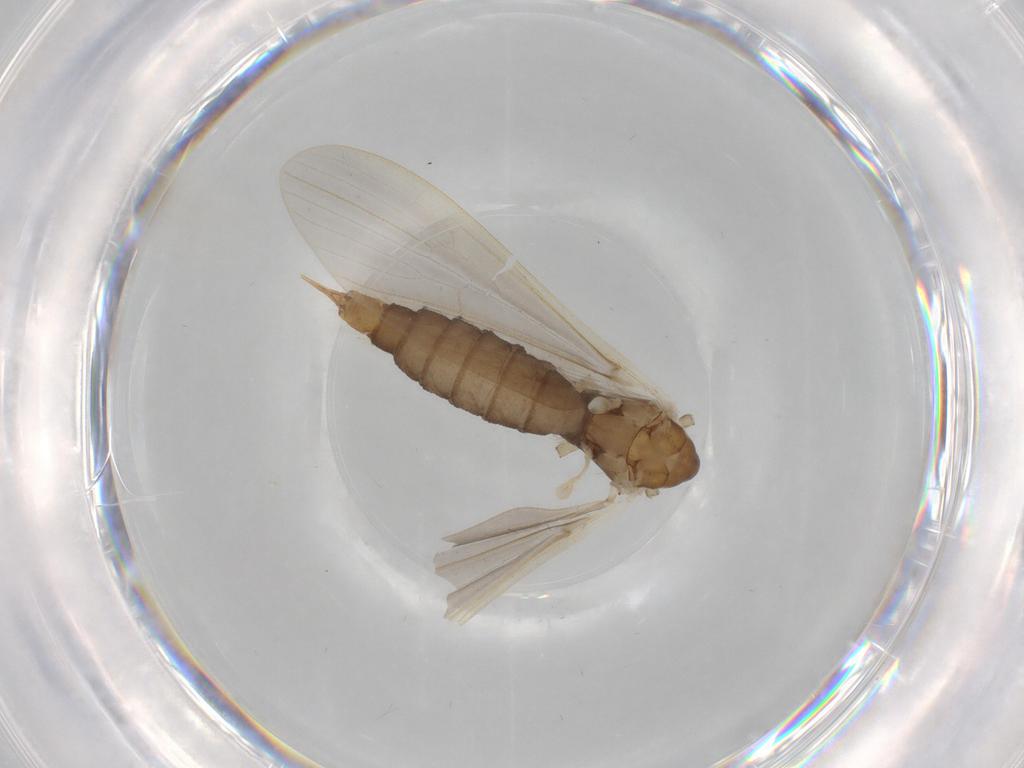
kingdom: Animalia
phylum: Arthropoda
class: Insecta
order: Diptera
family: Limoniidae
